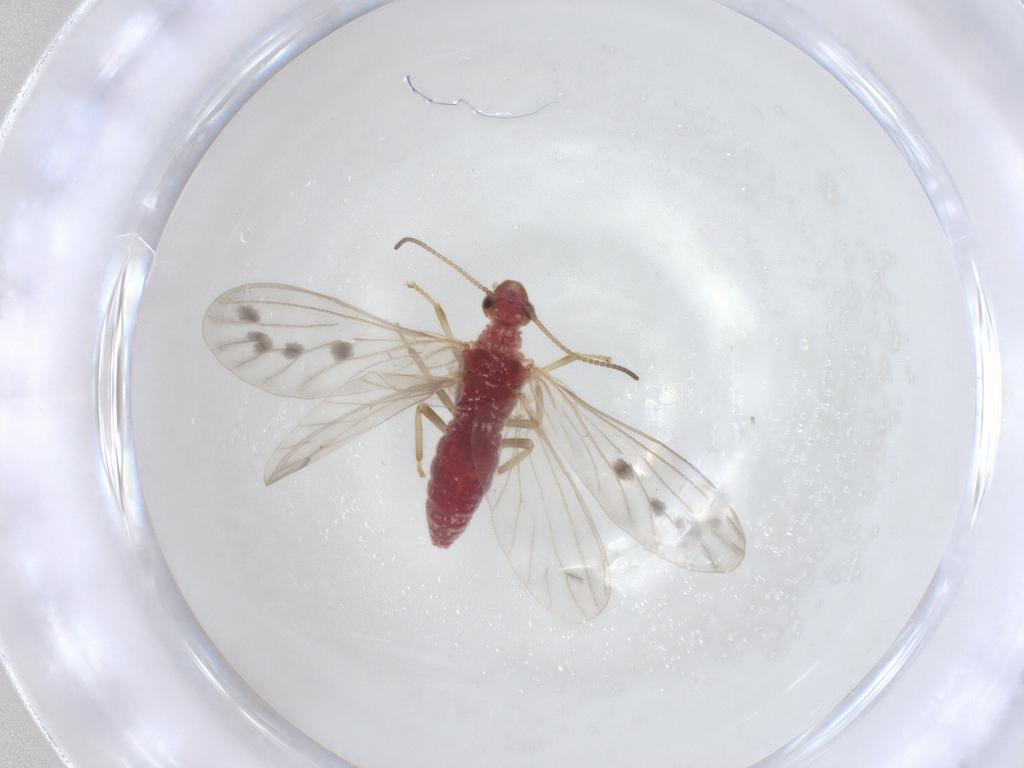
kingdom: Animalia
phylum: Arthropoda
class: Insecta
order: Neuroptera
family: Coniopterygidae
